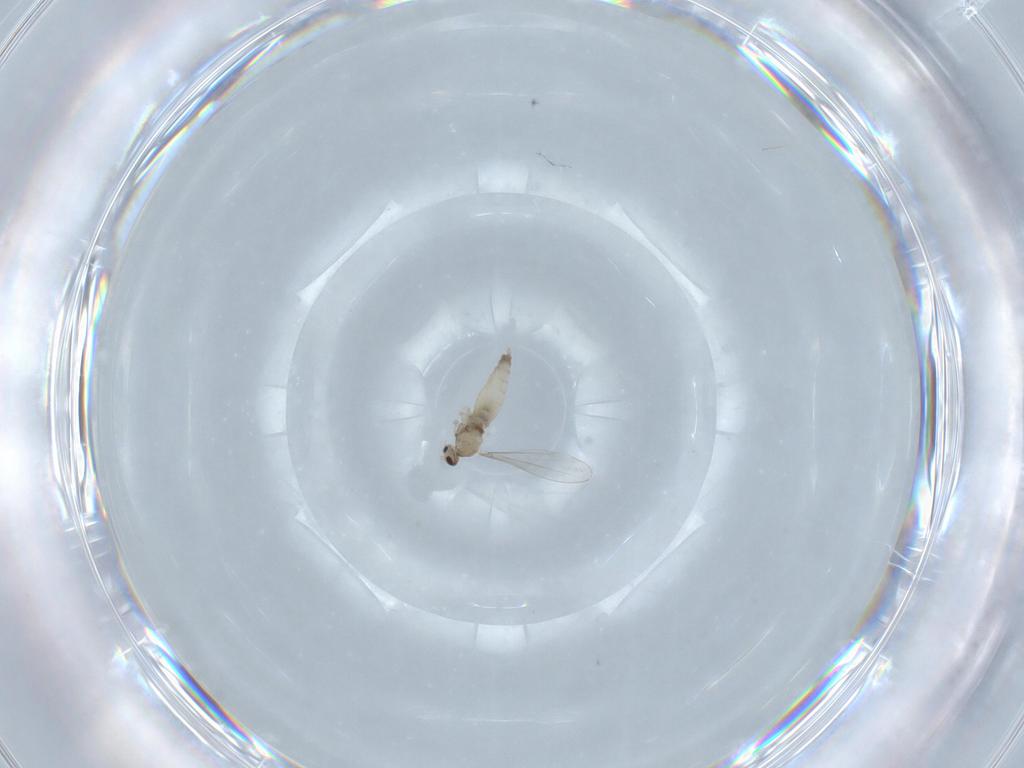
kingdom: Animalia
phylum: Arthropoda
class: Insecta
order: Diptera
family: Cecidomyiidae
